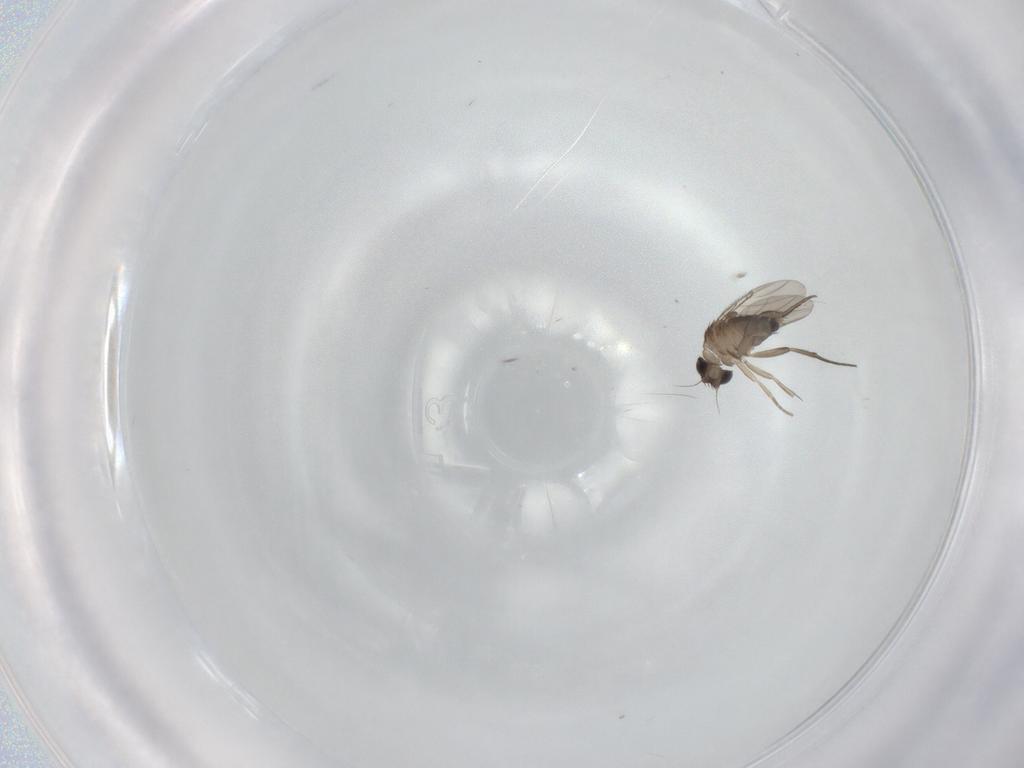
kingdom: Animalia
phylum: Arthropoda
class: Insecta
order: Diptera
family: Phoridae
